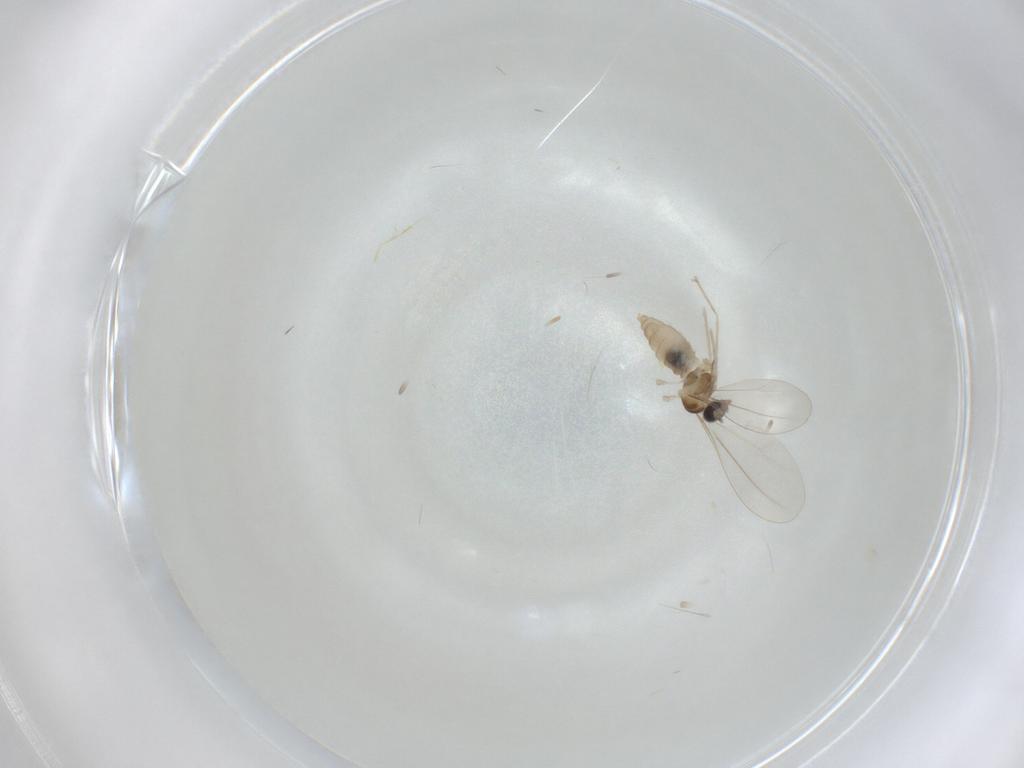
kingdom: Animalia
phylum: Arthropoda
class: Insecta
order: Diptera
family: Cecidomyiidae
